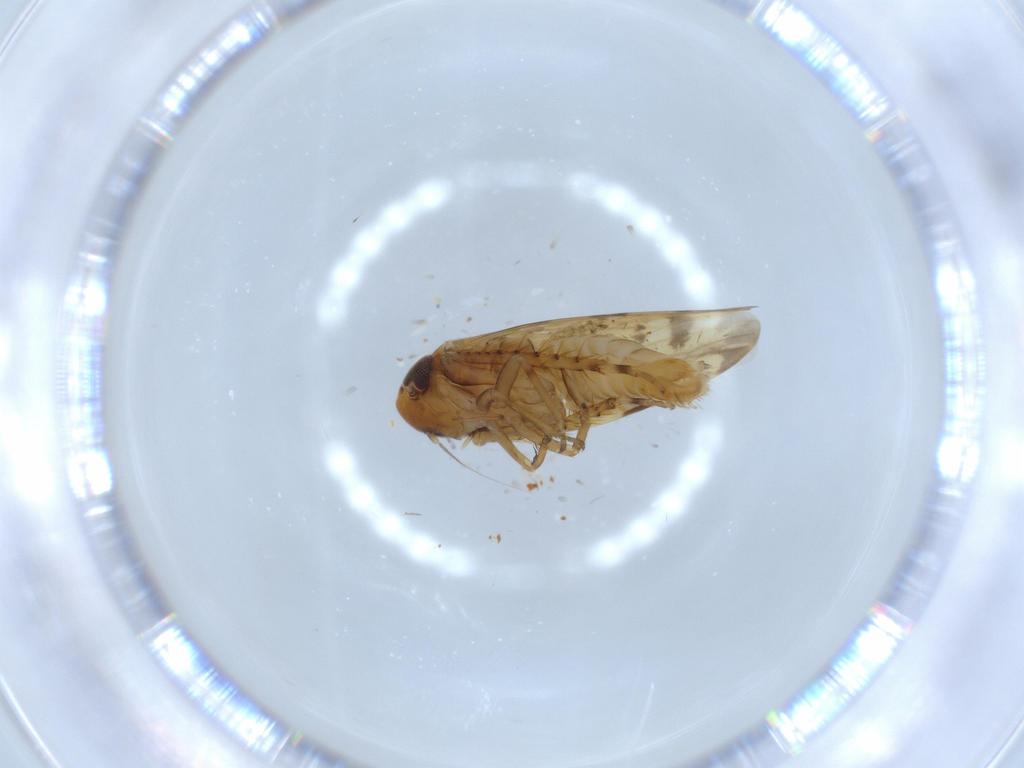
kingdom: Animalia
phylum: Arthropoda
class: Insecta
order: Hemiptera
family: Cicadellidae
